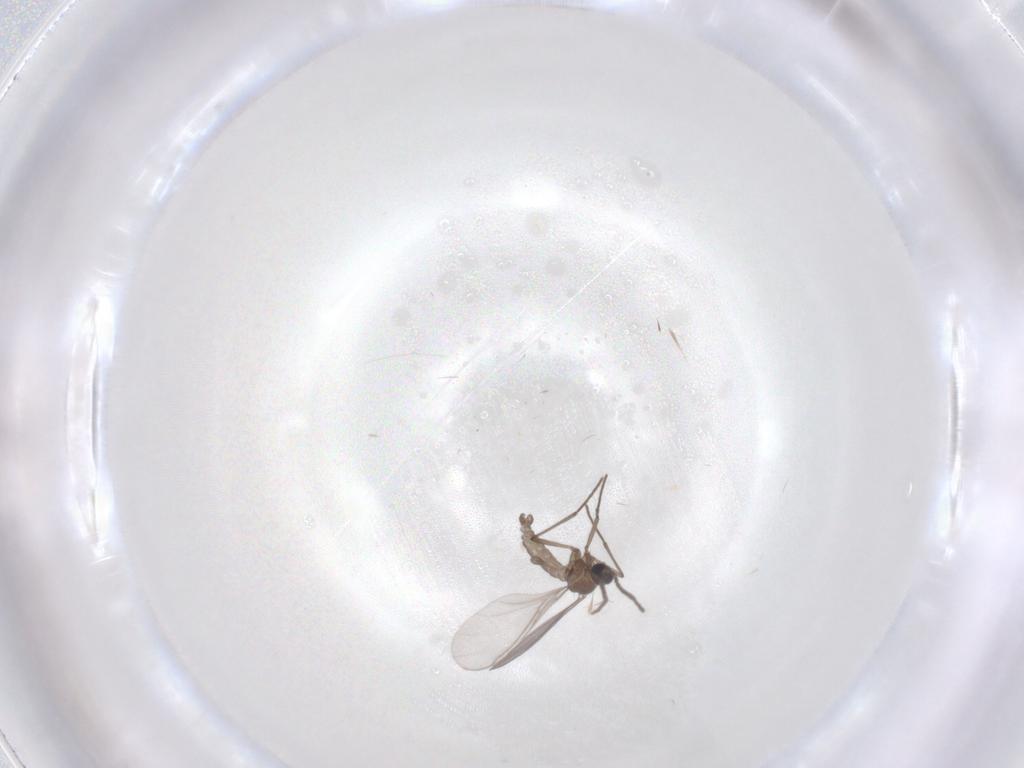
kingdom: Animalia
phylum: Arthropoda
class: Insecta
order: Diptera
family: Sciaridae
